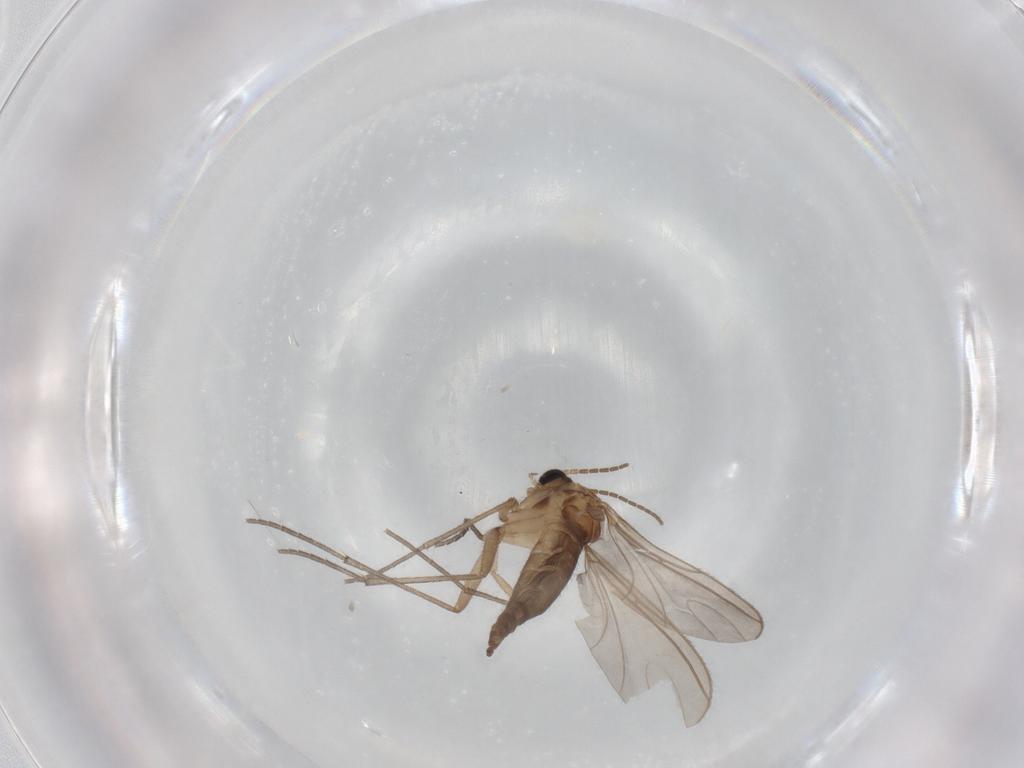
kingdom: Animalia
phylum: Arthropoda
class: Insecta
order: Diptera
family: Sciaridae
